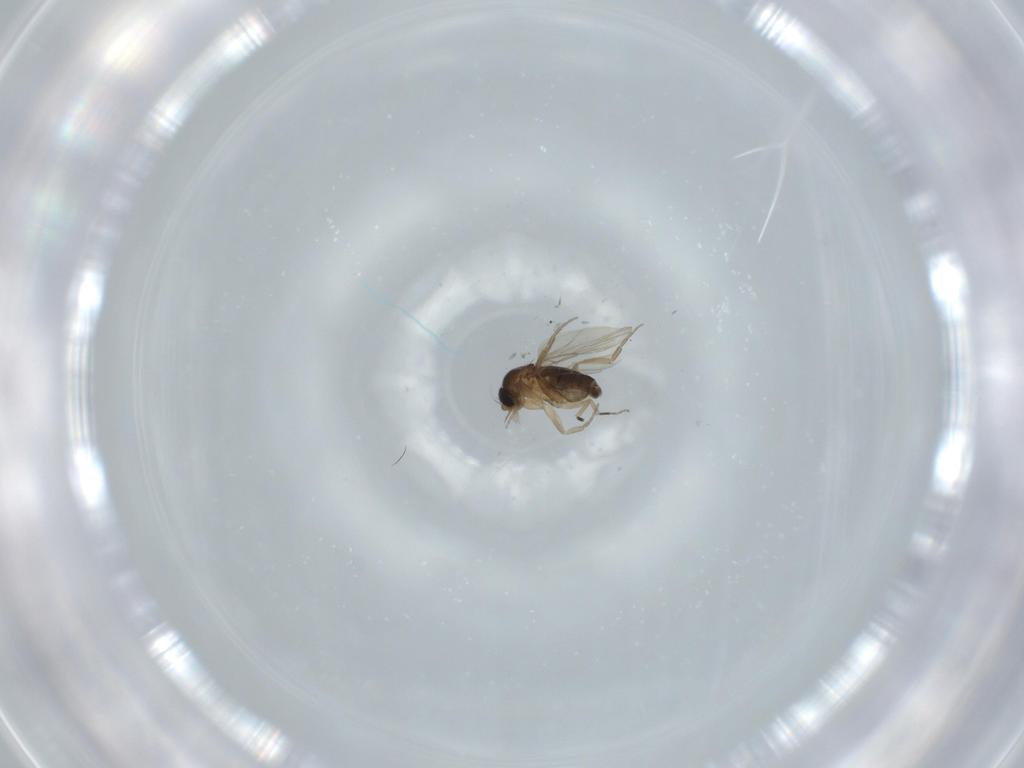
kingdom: Animalia
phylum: Arthropoda
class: Insecta
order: Diptera
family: Phoridae
